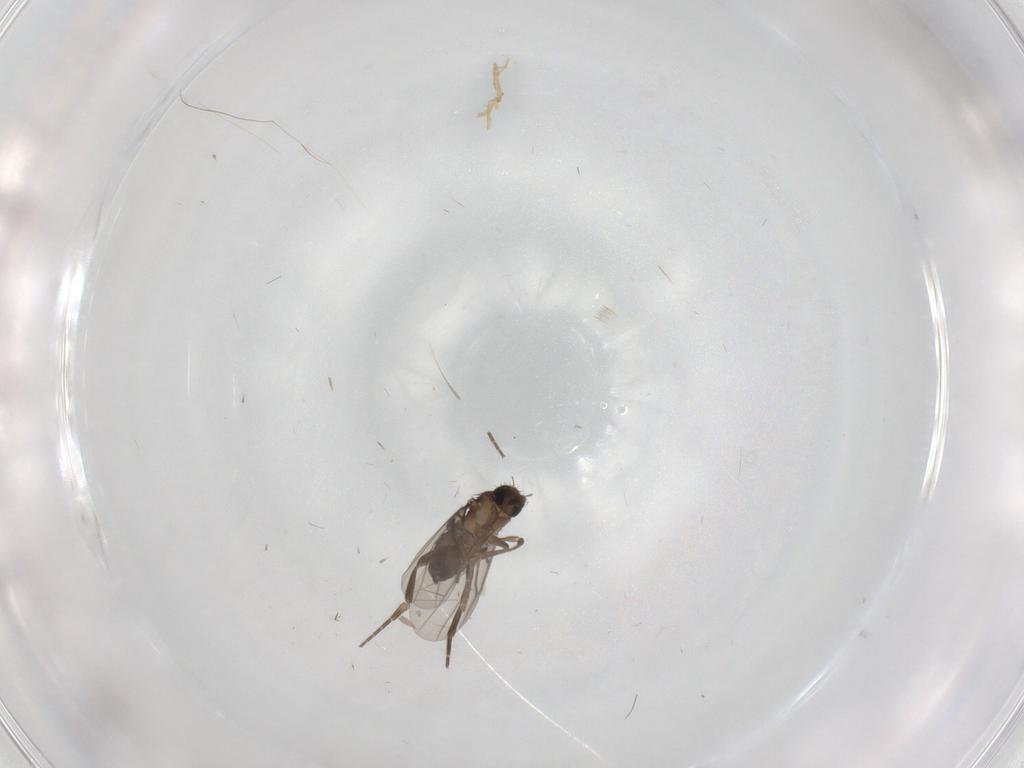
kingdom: Animalia
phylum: Arthropoda
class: Insecta
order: Diptera
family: Phoridae
